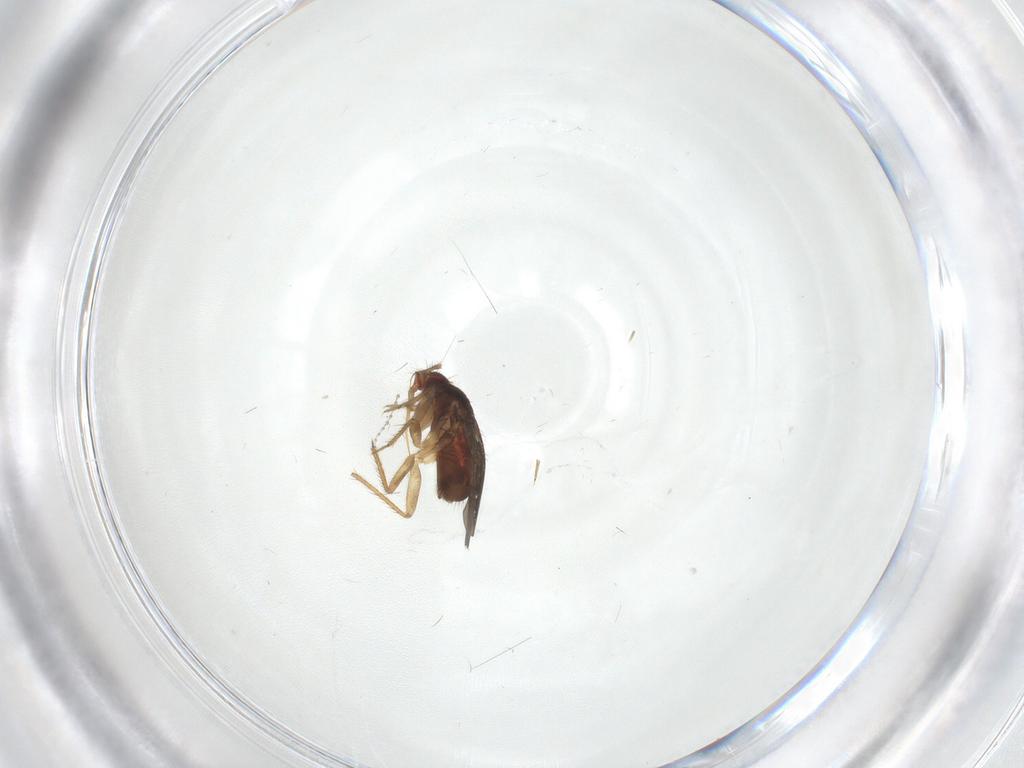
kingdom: Animalia
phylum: Arthropoda
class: Insecta
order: Hemiptera
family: Ceratocombidae
